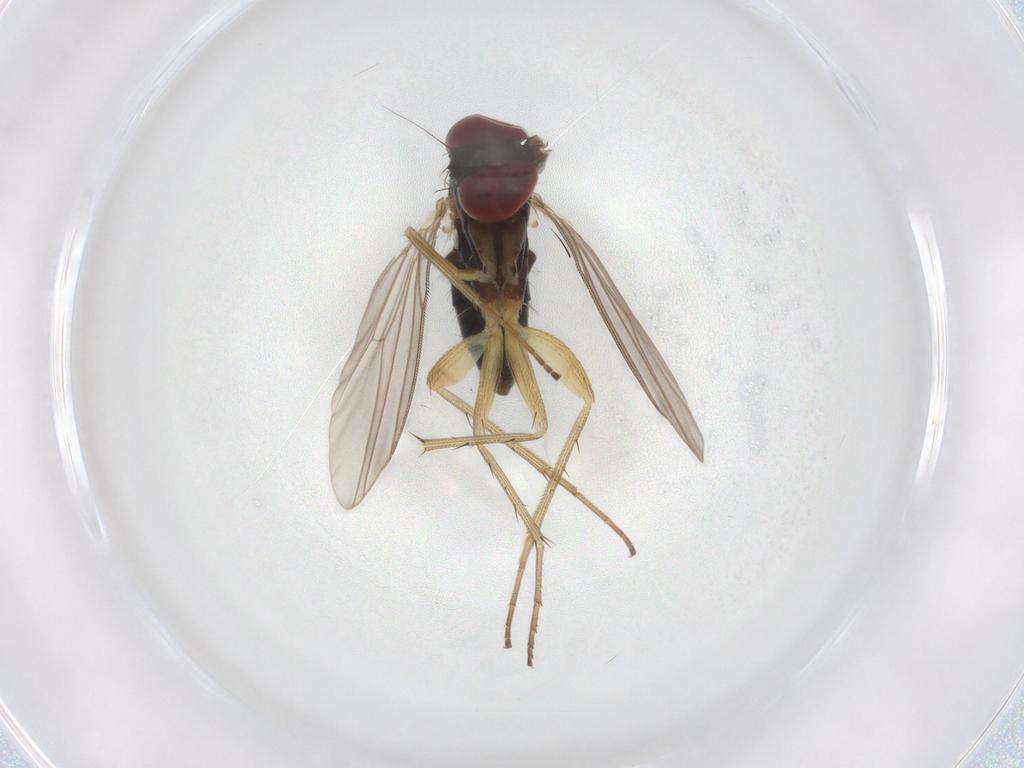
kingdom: Animalia
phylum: Arthropoda
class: Insecta
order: Diptera
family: Dolichopodidae
